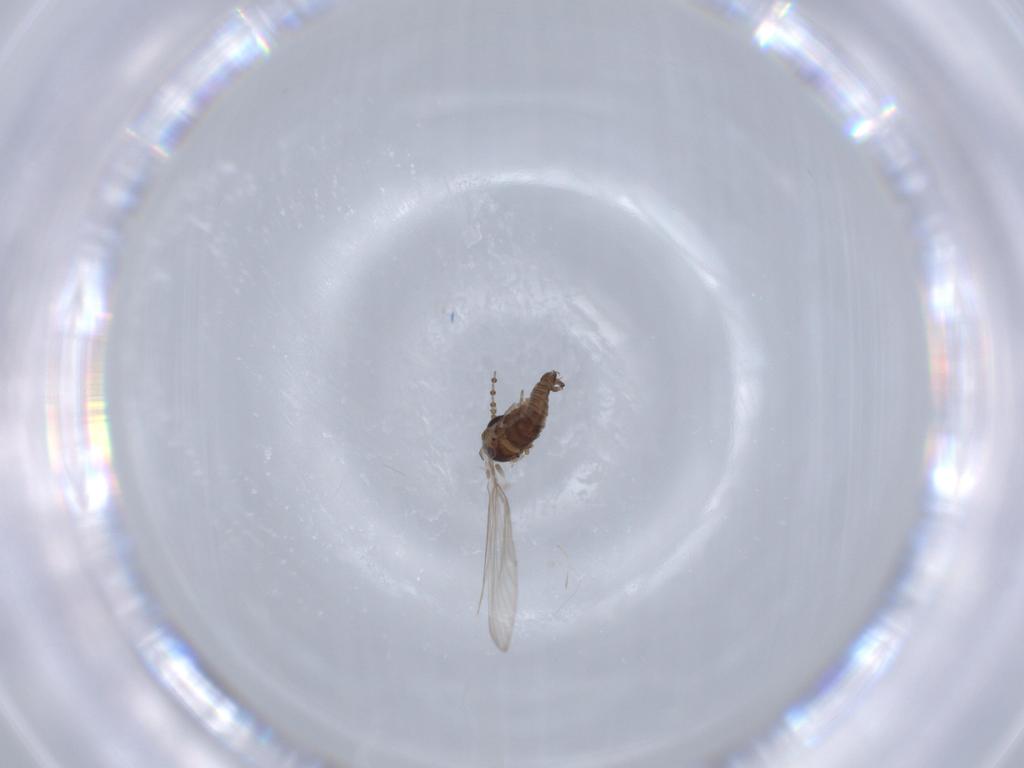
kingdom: Animalia
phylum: Arthropoda
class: Insecta
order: Diptera
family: Psychodidae
